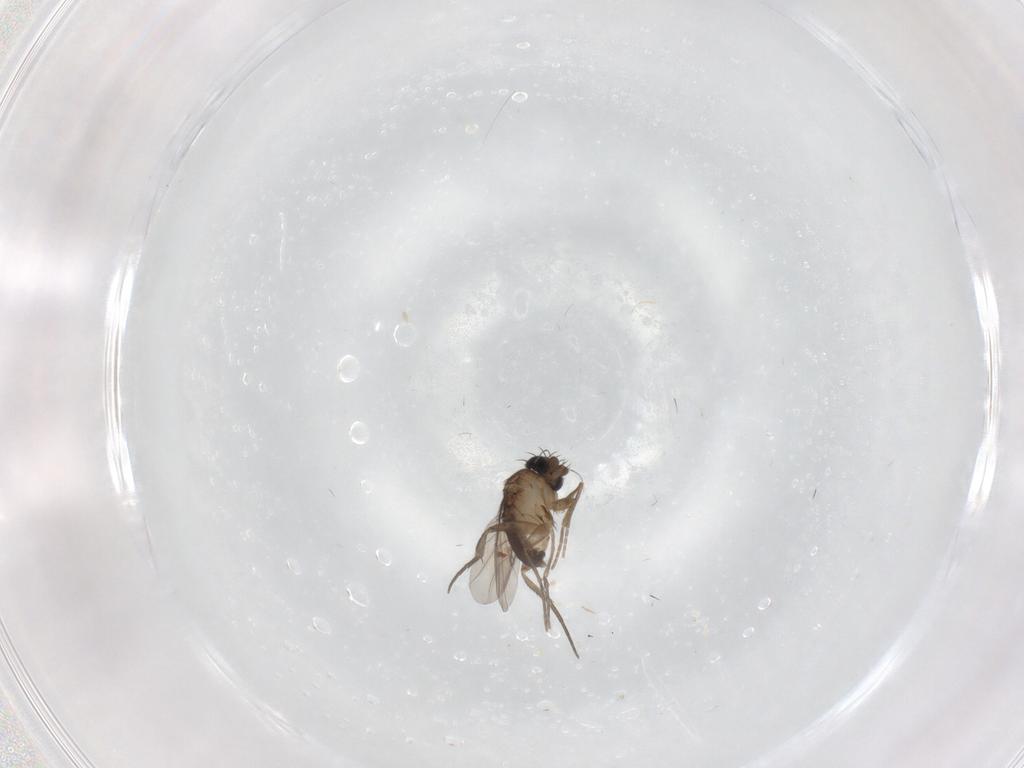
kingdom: Animalia
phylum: Arthropoda
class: Insecta
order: Diptera
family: Phoridae
